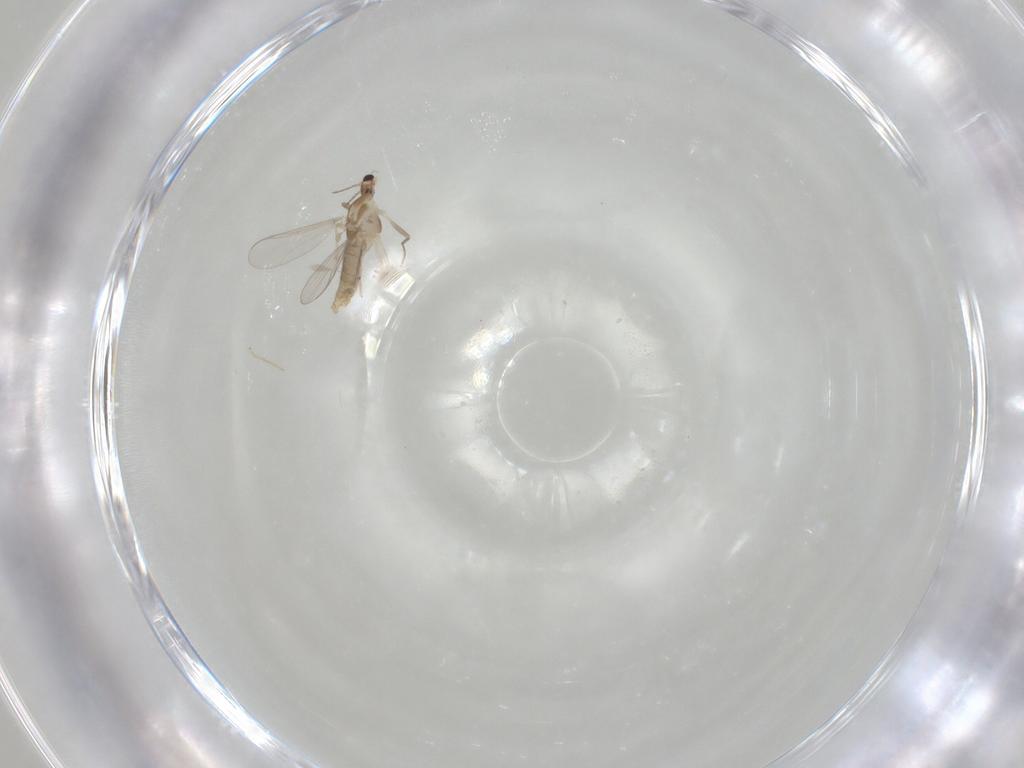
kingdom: Animalia
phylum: Arthropoda
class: Insecta
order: Diptera
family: Chironomidae
